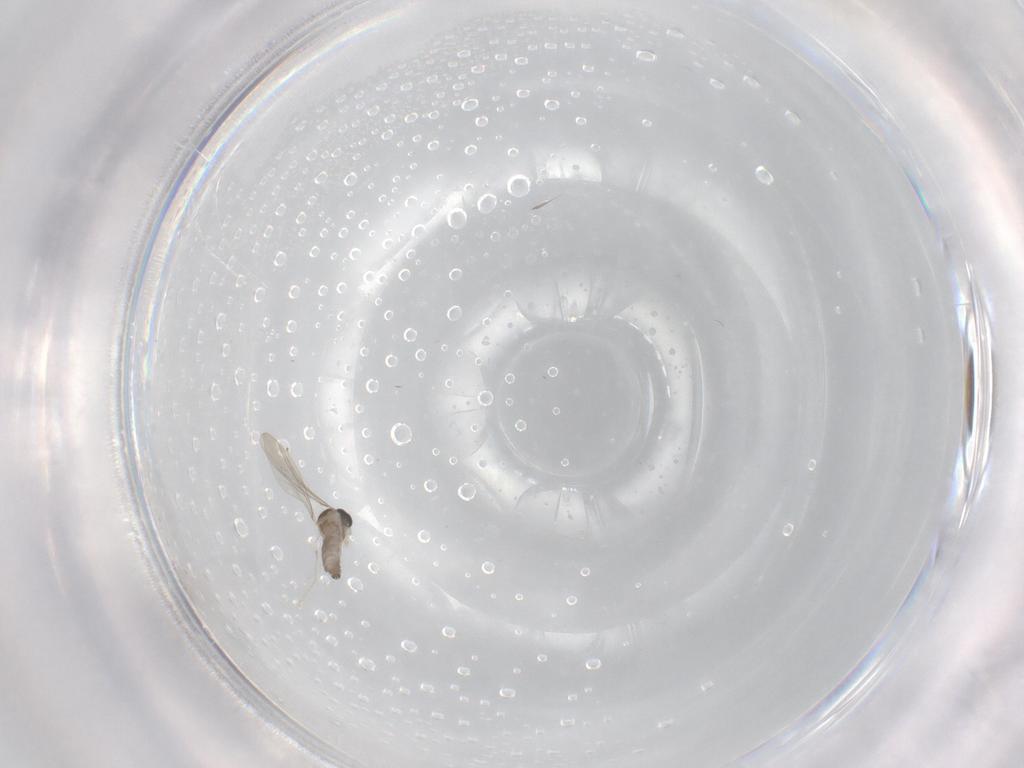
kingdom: Animalia
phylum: Arthropoda
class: Insecta
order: Diptera
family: Cecidomyiidae
